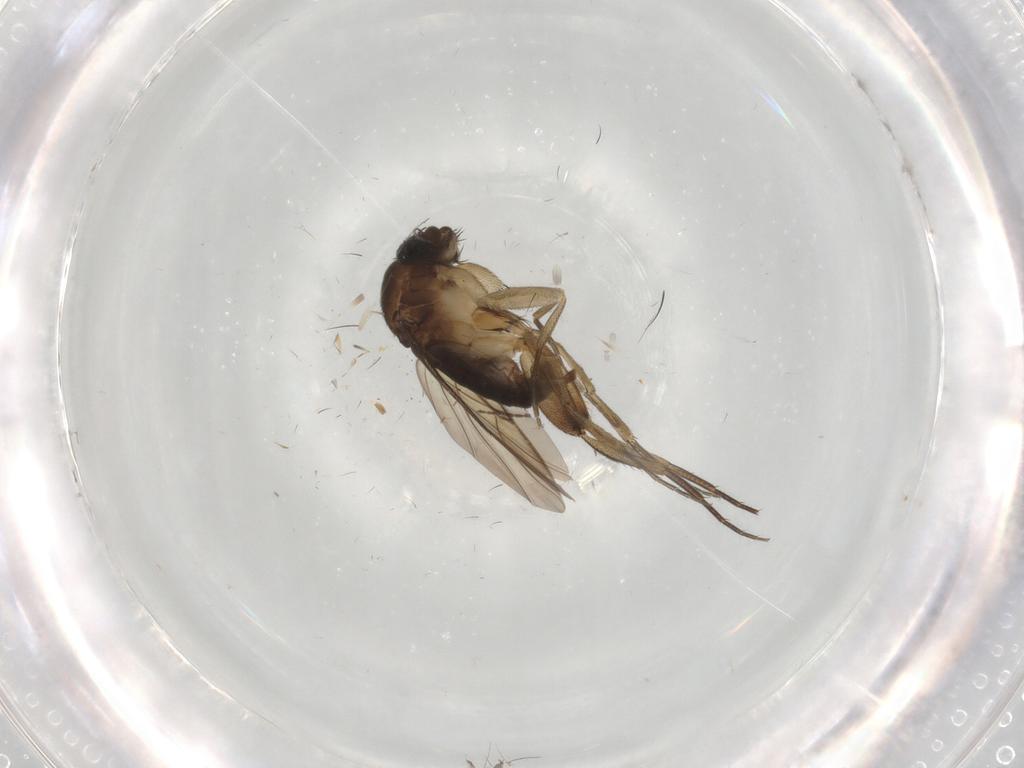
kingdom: Animalia
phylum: Arthropoda
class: Insecta
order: Diptera
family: Phoridae
